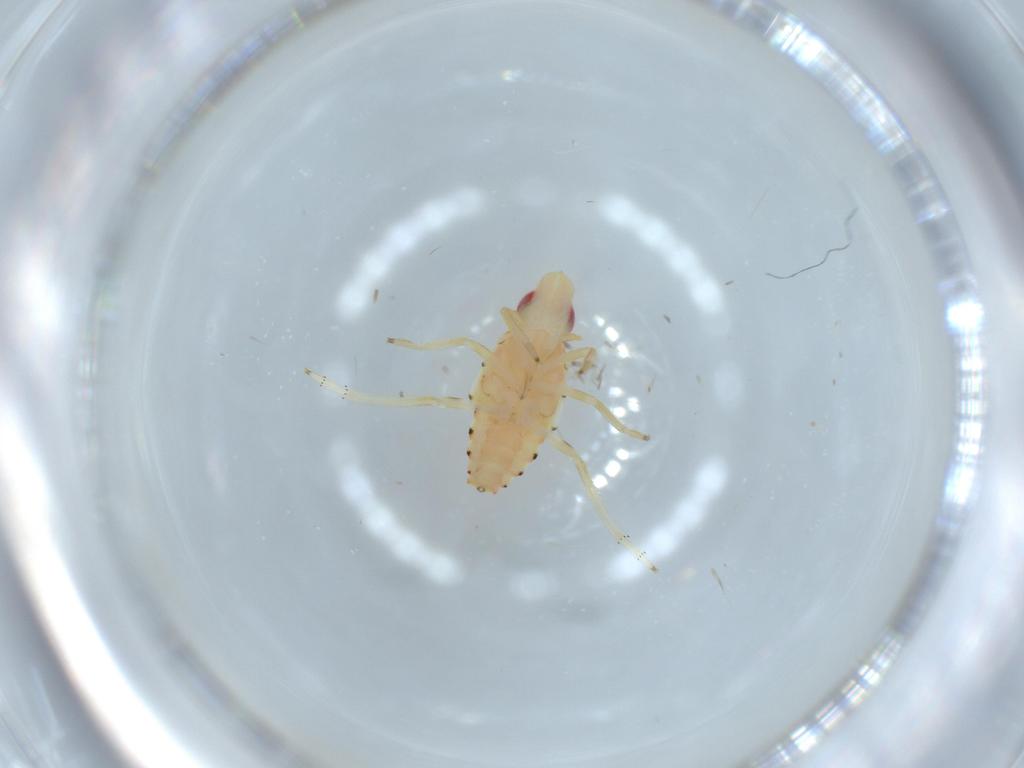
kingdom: Animalia
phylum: Arthropoda
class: Insecta
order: Hemiptera
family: Tropiduchidae
